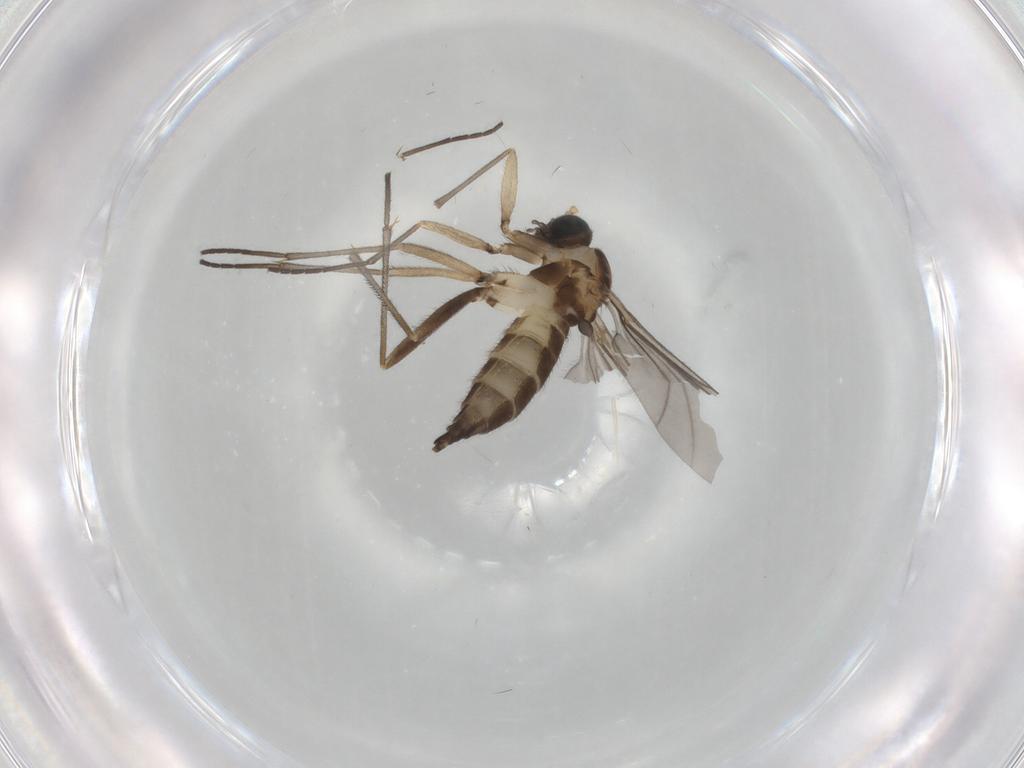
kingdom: Animalia
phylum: Arthropoda
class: Insecta
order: Diptera
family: Sciaridae
